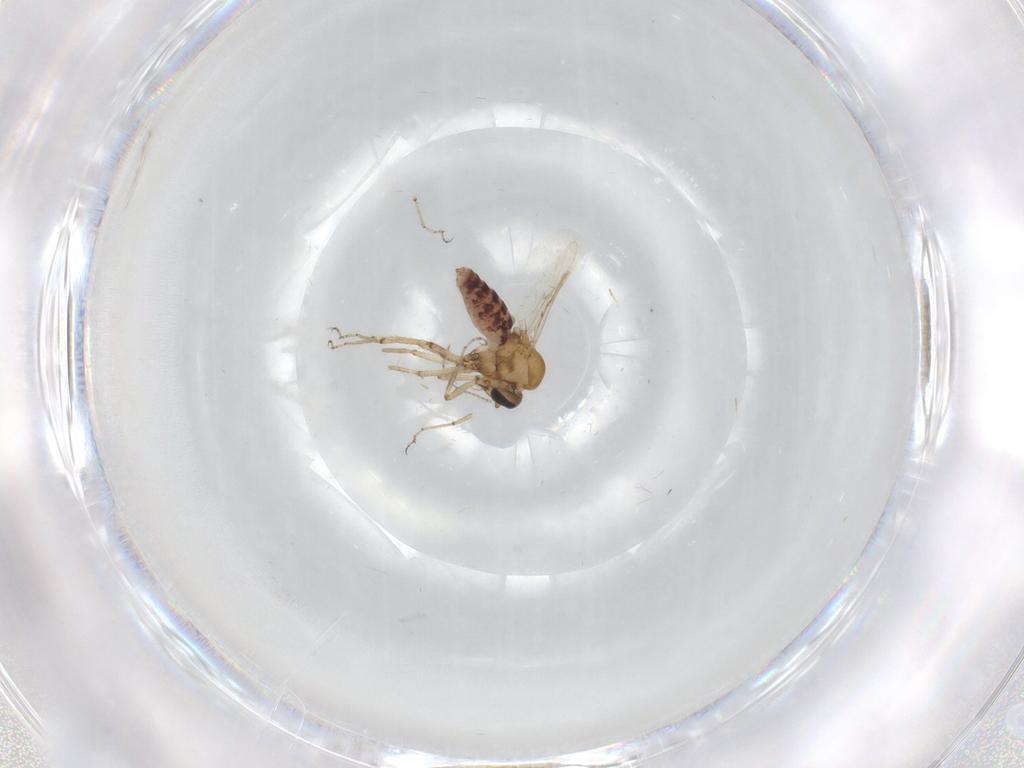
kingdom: Animalia
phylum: Arthropoda
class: Insecta
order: Diptera
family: Ceratopogonidae
